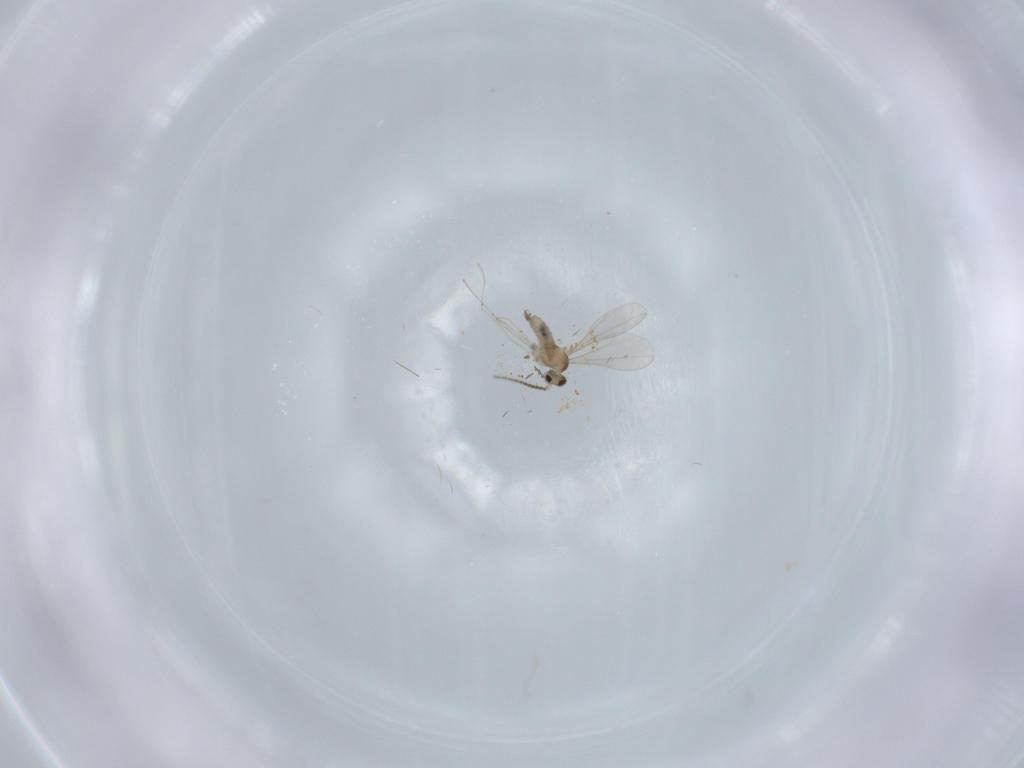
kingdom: Animalia
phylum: Arthropoda
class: Insecta
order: Diptera
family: Cecidomyiidae
